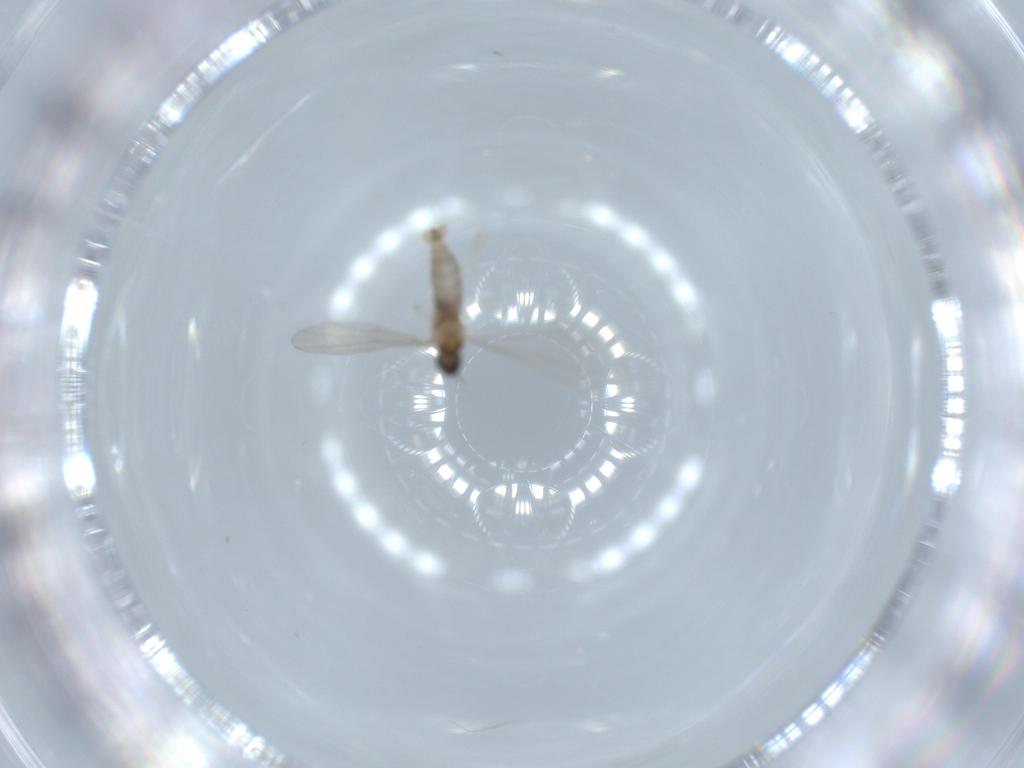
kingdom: Animalia
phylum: Arthropoda
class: Insecta
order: Diptera
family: Cecidomyiidae
